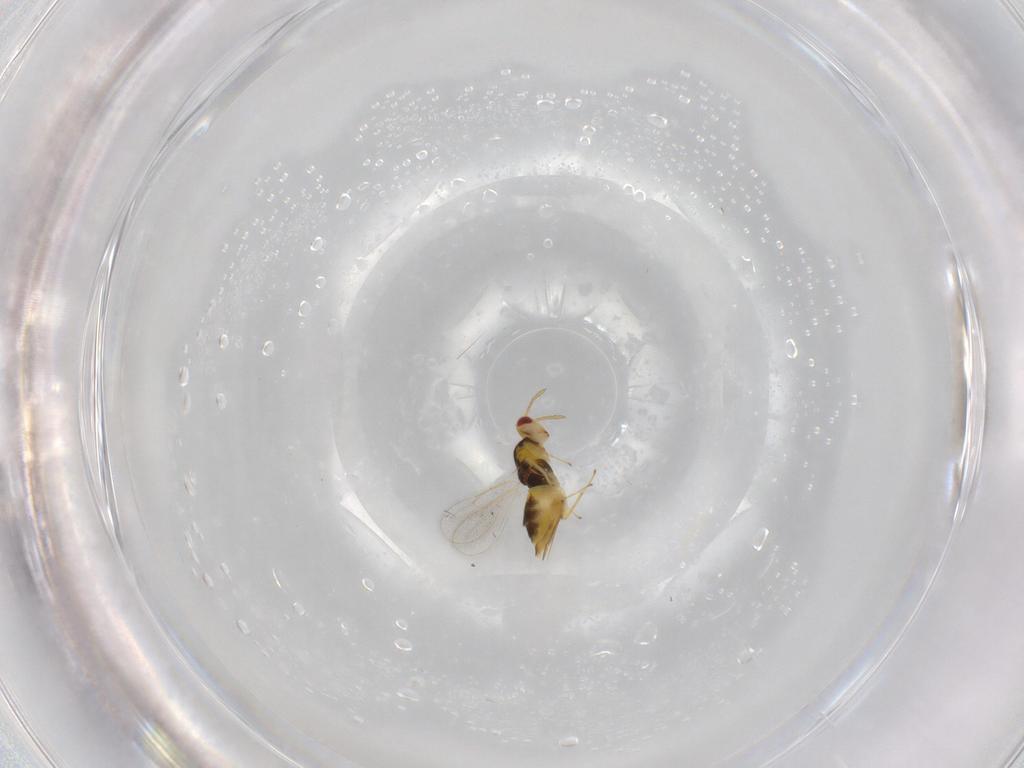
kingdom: Animalia
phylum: Arthropoda
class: Insecta
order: Hymenoptera
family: Eulophidae
